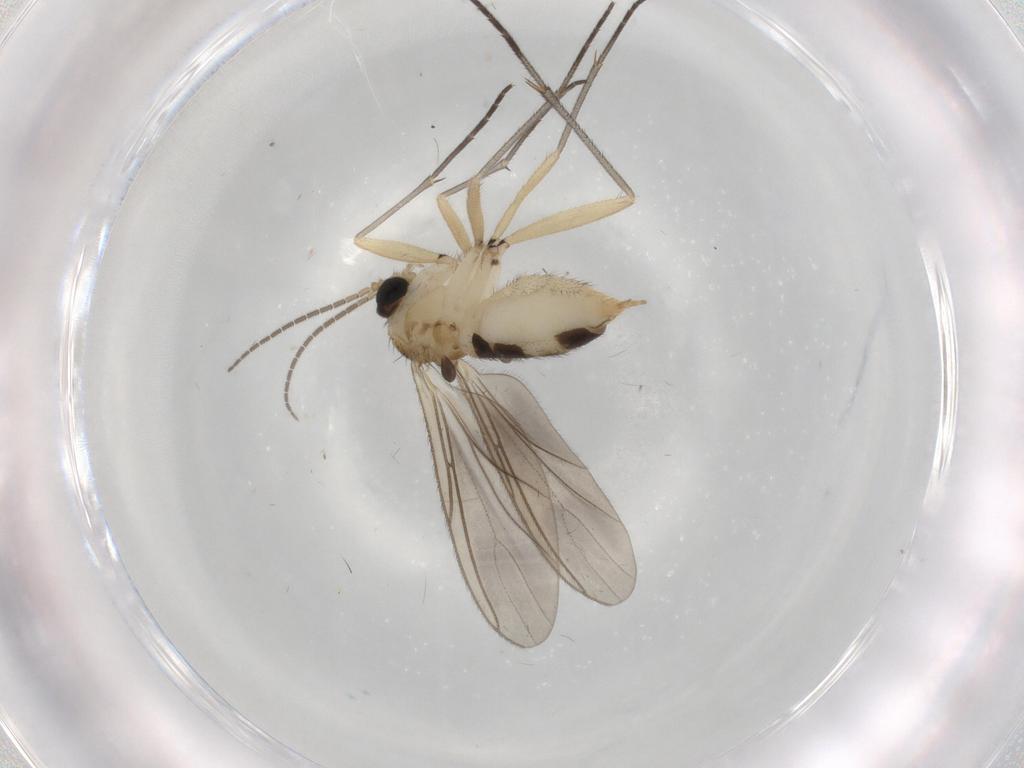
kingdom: Animalia
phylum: Arthropoda
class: Insecta
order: Diptera
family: Sciaridae
